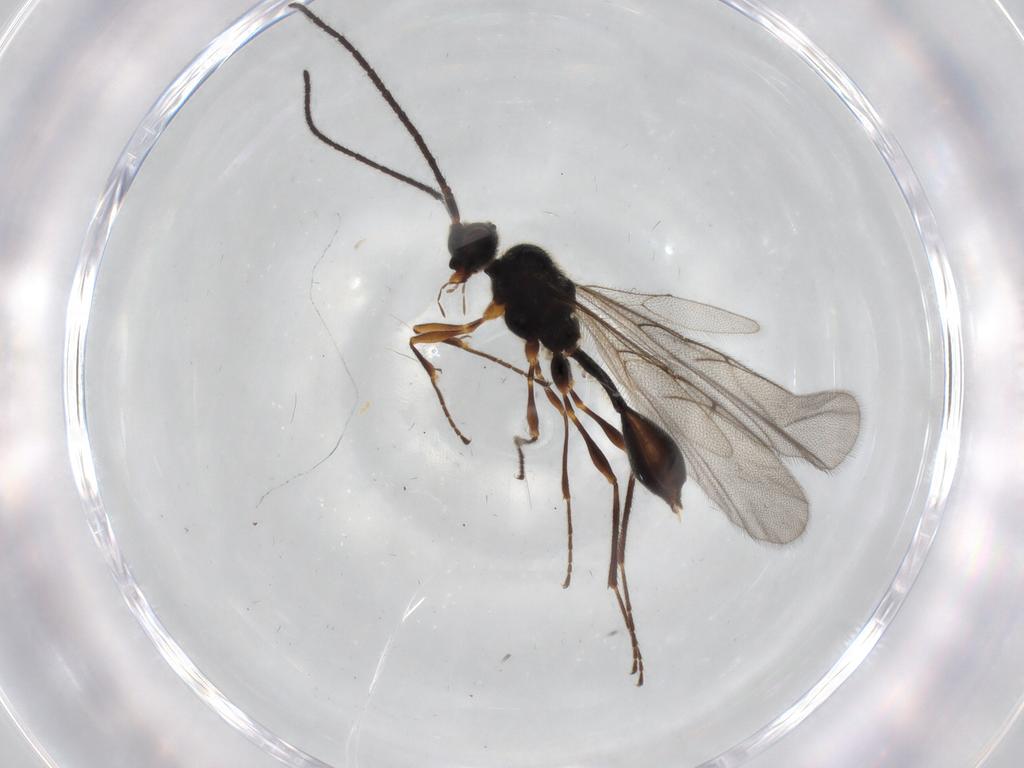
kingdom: Animalia
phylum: Arthropoda
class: Insecta
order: Hymenoptera
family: Diapriidae
